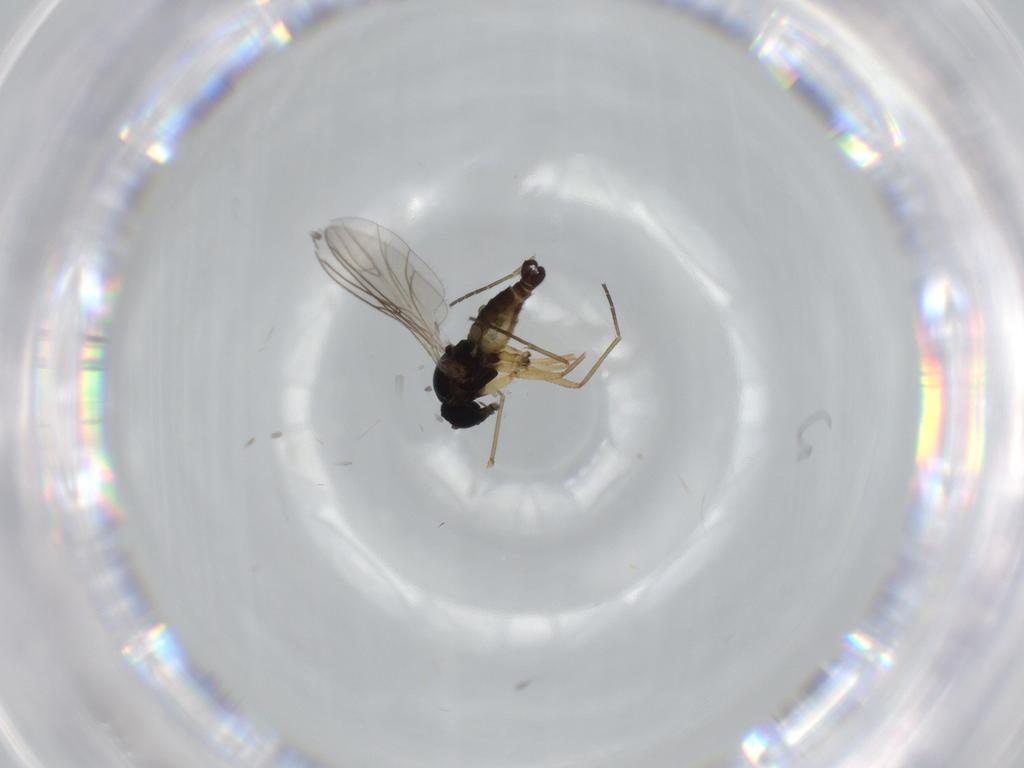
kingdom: Animalia
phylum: Arthropoda
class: Insecta
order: Diptera
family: Sciaridae
